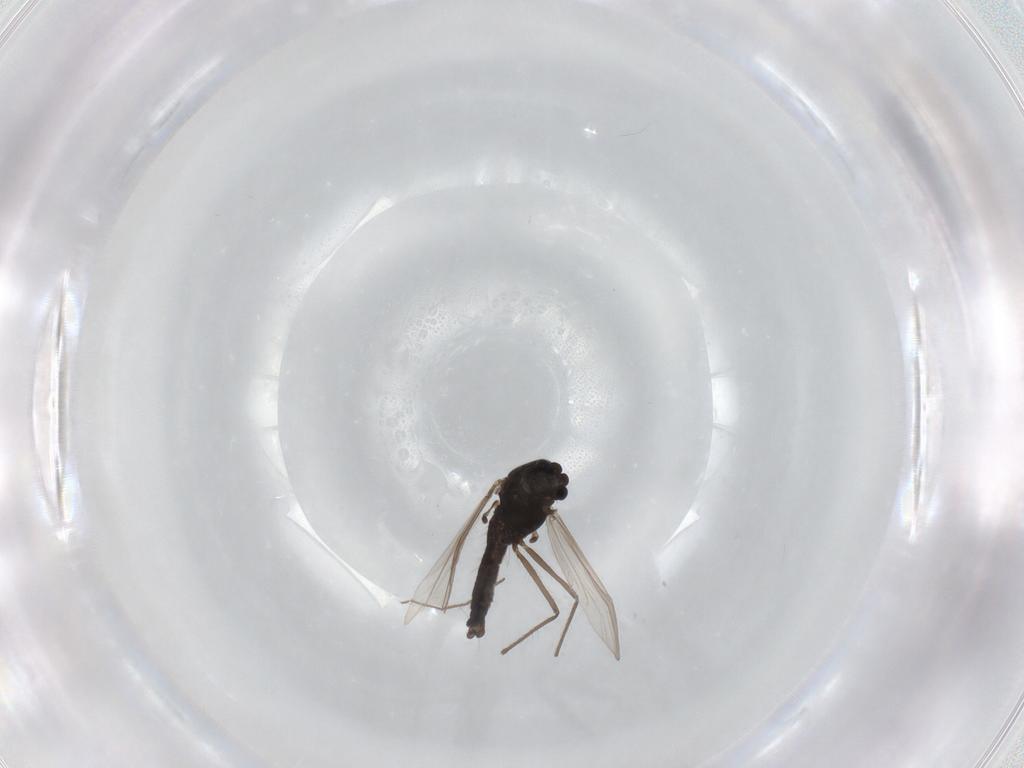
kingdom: Animalia
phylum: Arthropoda
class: Insecta
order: Diptera
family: Chironomidae
